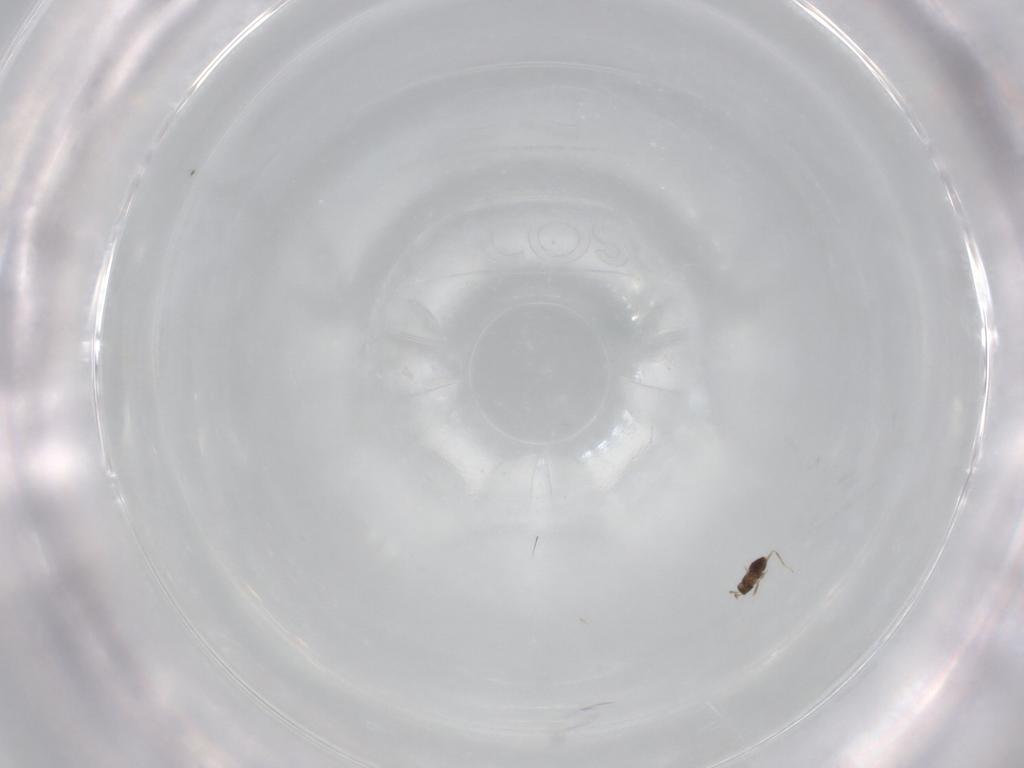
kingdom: Animalia
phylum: Arthropoda
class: Insecta
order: Hymenoptera
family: Mymaridae
